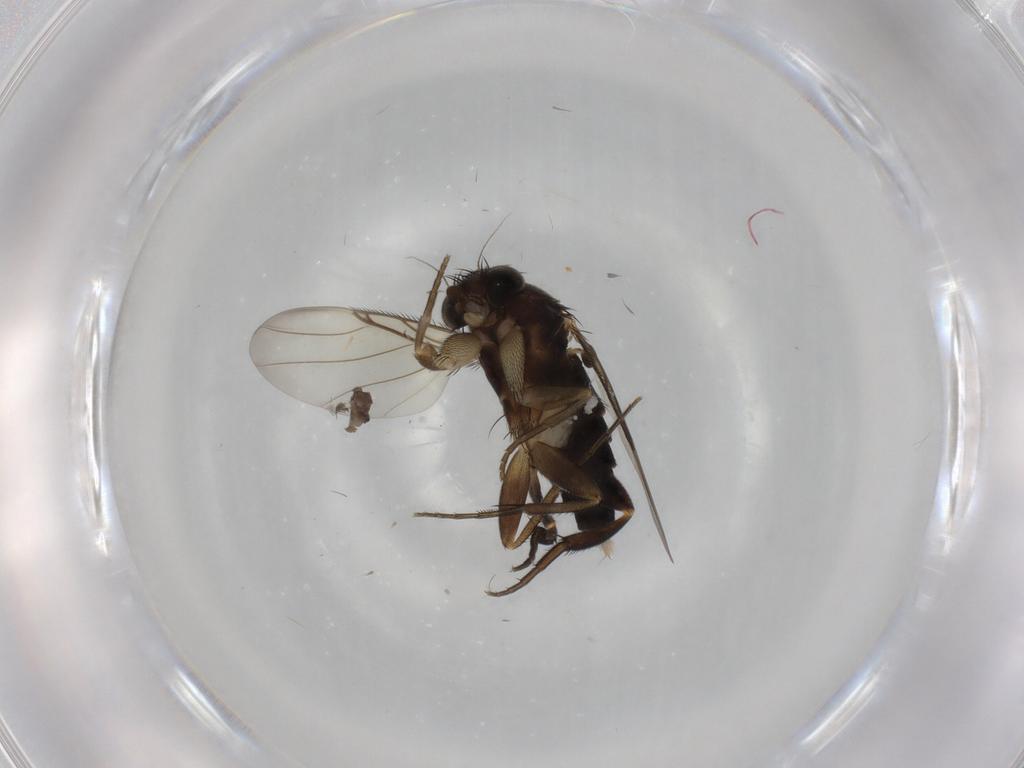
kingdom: Animalia
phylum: Arthropoda
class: Insecta
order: Diptera
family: Phoridae
